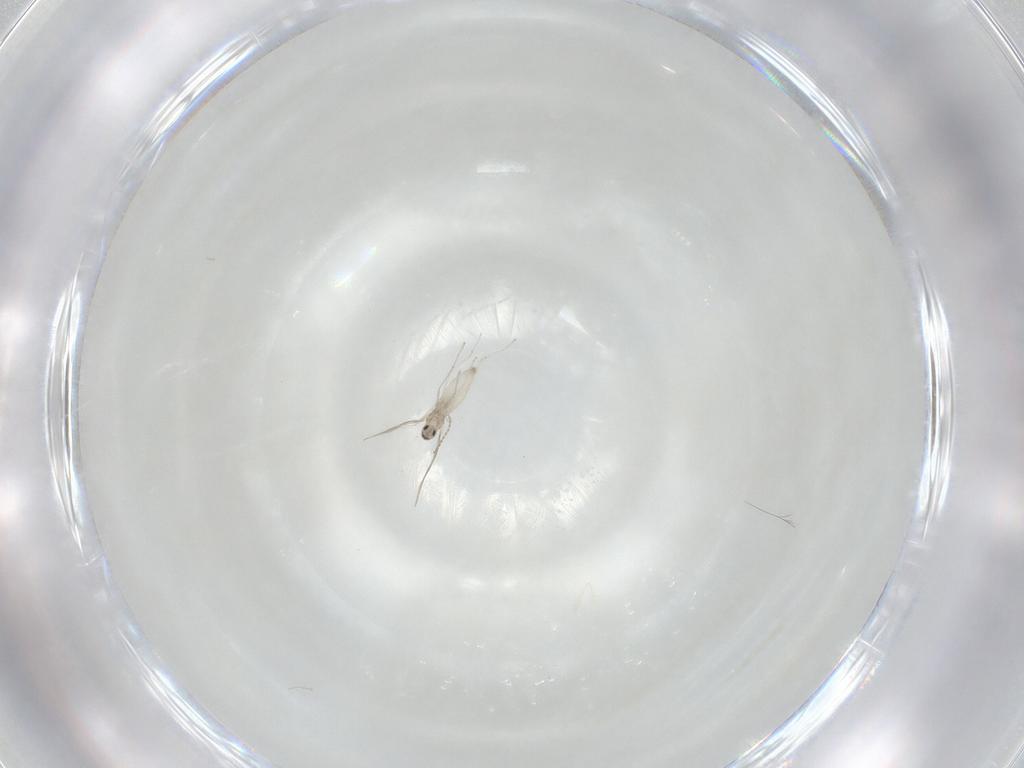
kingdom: Animalia
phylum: Arthropoda
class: Insecta
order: Diptera
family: Cecidomyiidae
